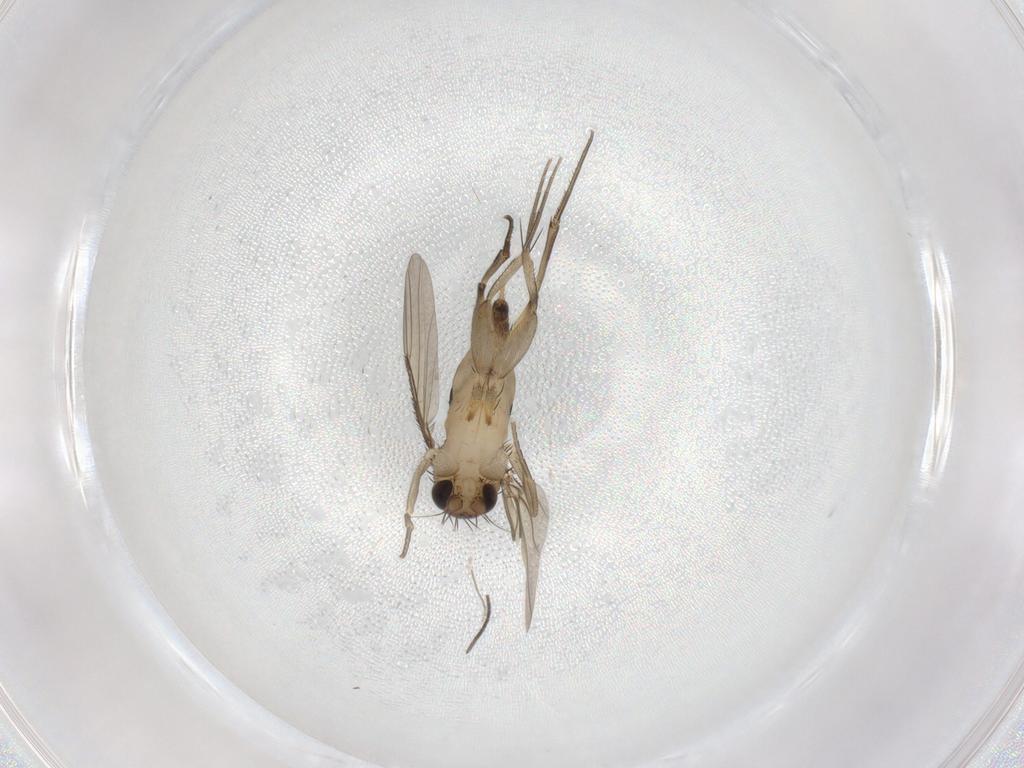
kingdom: Animalia
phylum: Arthropoda
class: Insecta
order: Diptera
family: Phoridae
